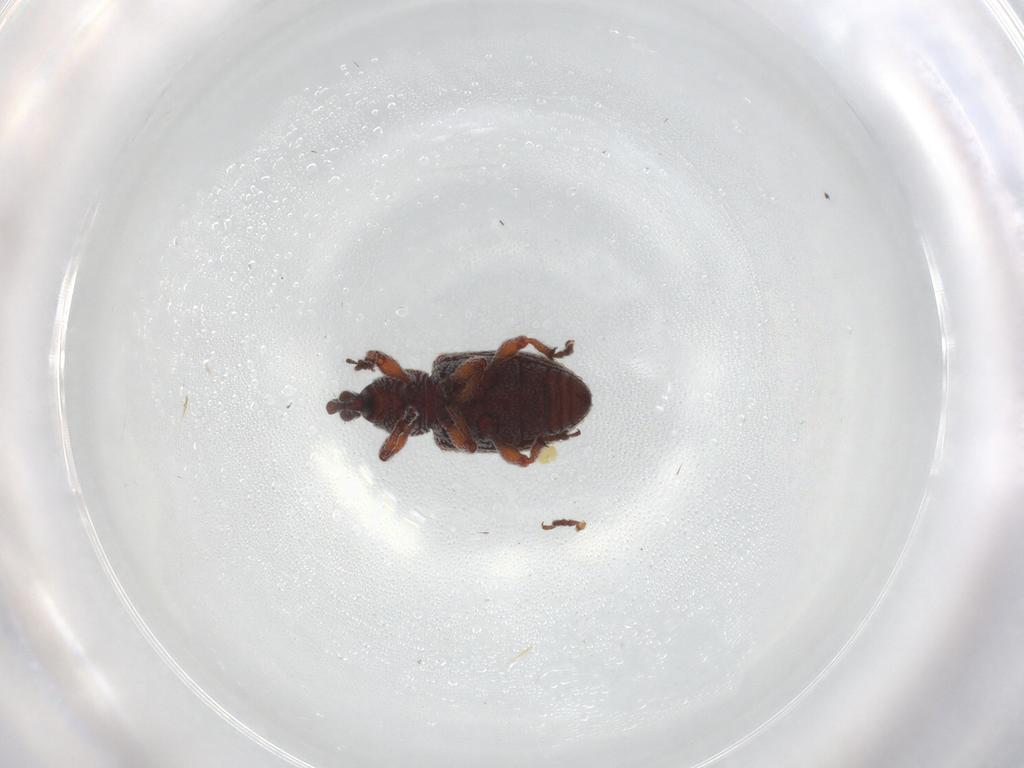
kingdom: Animalia
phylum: Arthropoda
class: Insecta
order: Coleoptera
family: Curculionidae
